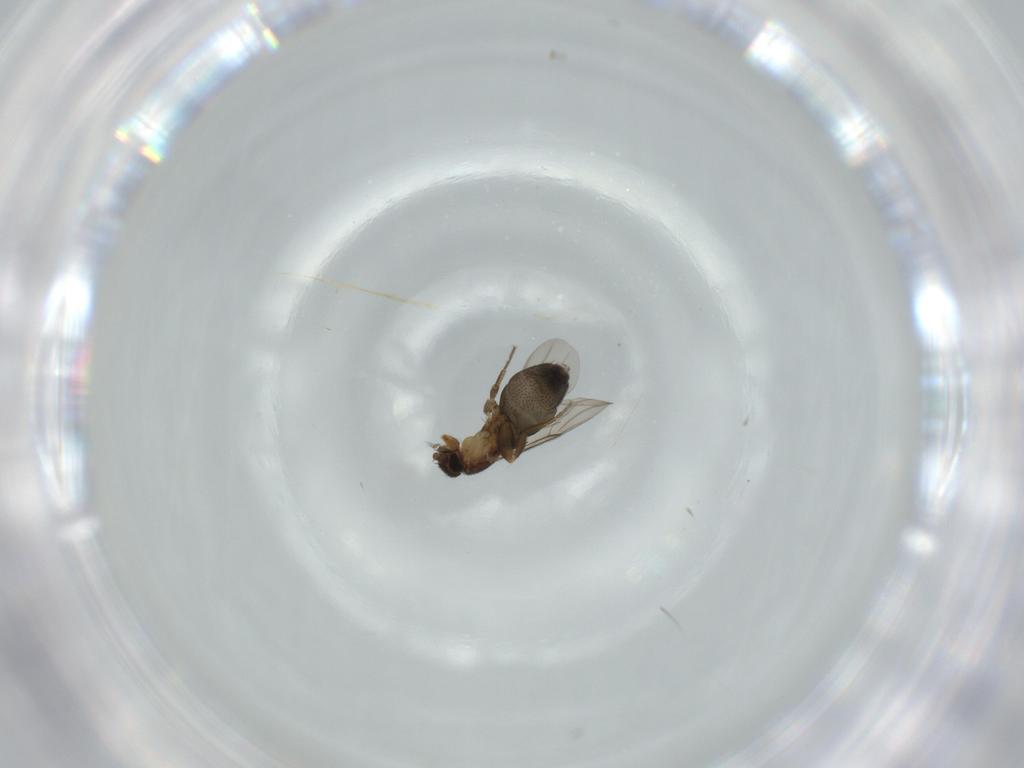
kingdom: Animalia
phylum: Arthropoda
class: Insecta
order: Diptera
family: Phoridae
